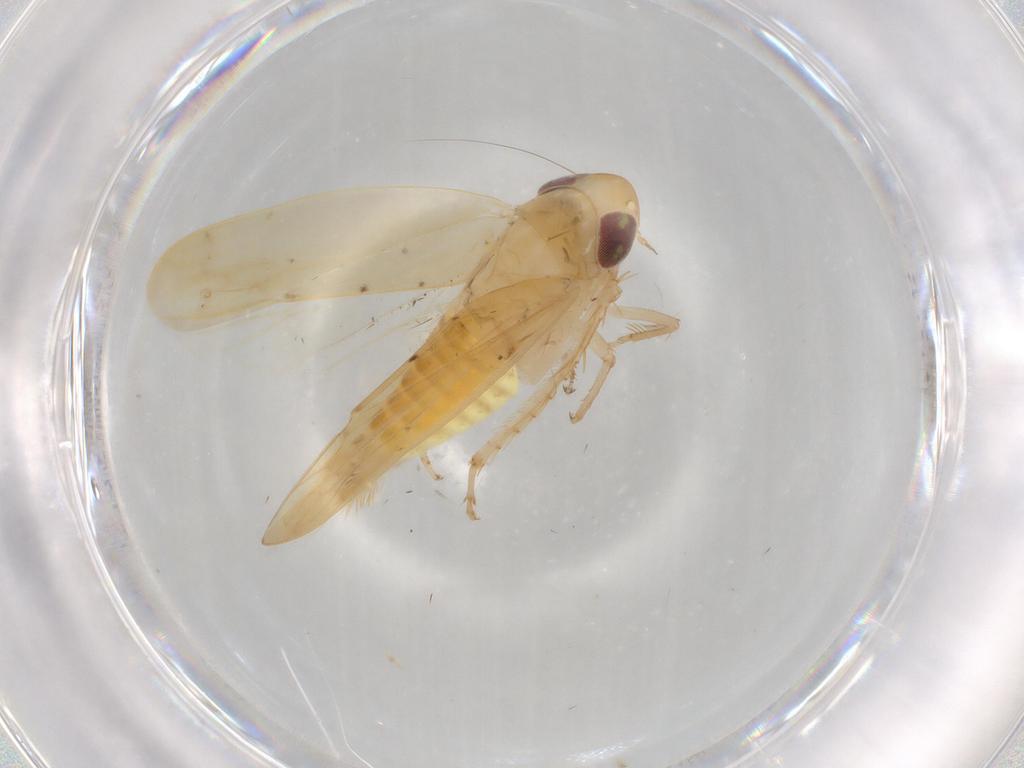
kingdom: Animalia
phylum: Arthropoda
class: Insecta
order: Hemiptera
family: Cicadellidae
